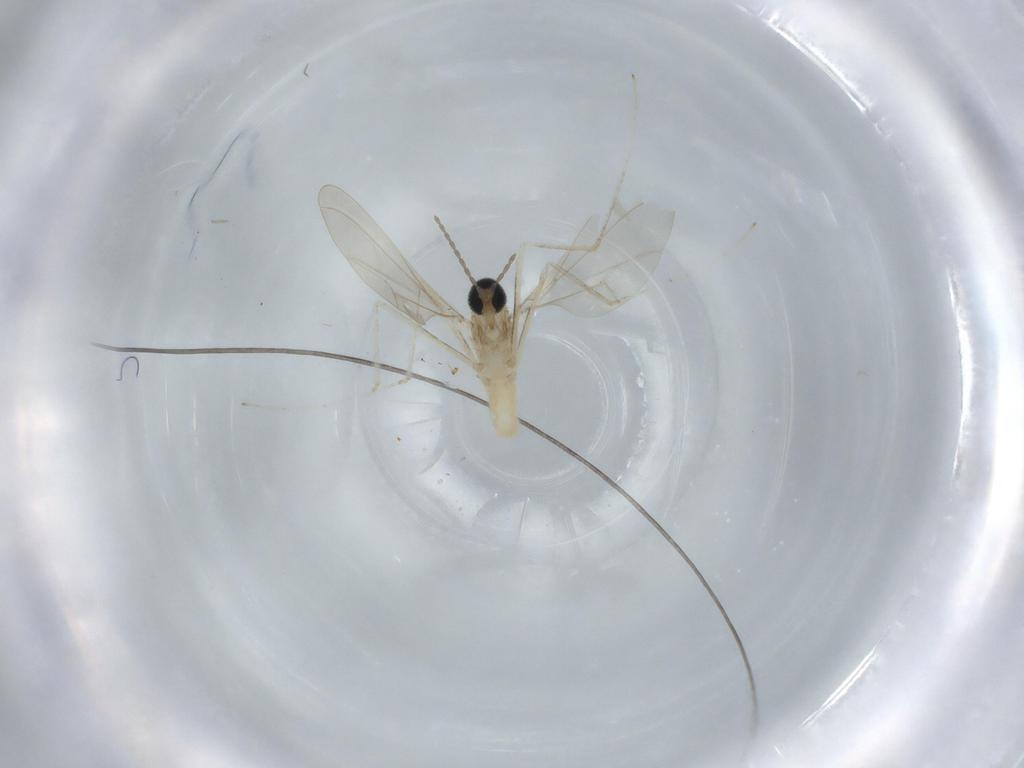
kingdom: Animalia
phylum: Arthropoda
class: Insecta
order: Diptera
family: Cecidomyiidae
